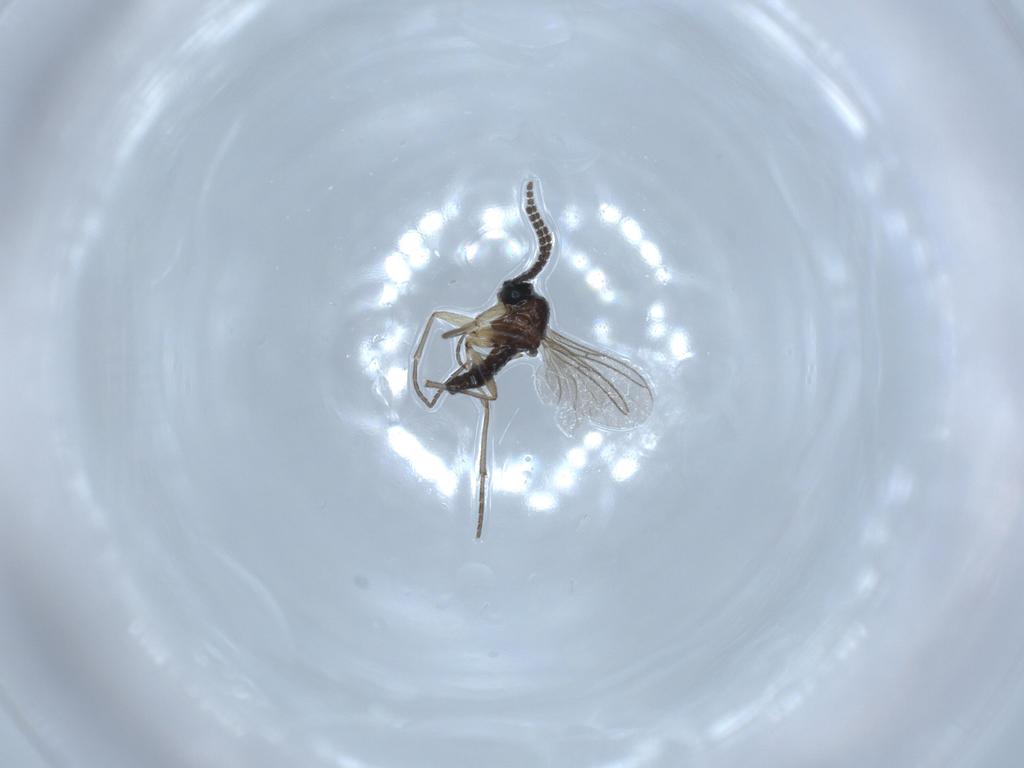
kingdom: Animalia
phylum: Arthropoda
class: Insecta
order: Diptera
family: Sciaridae
